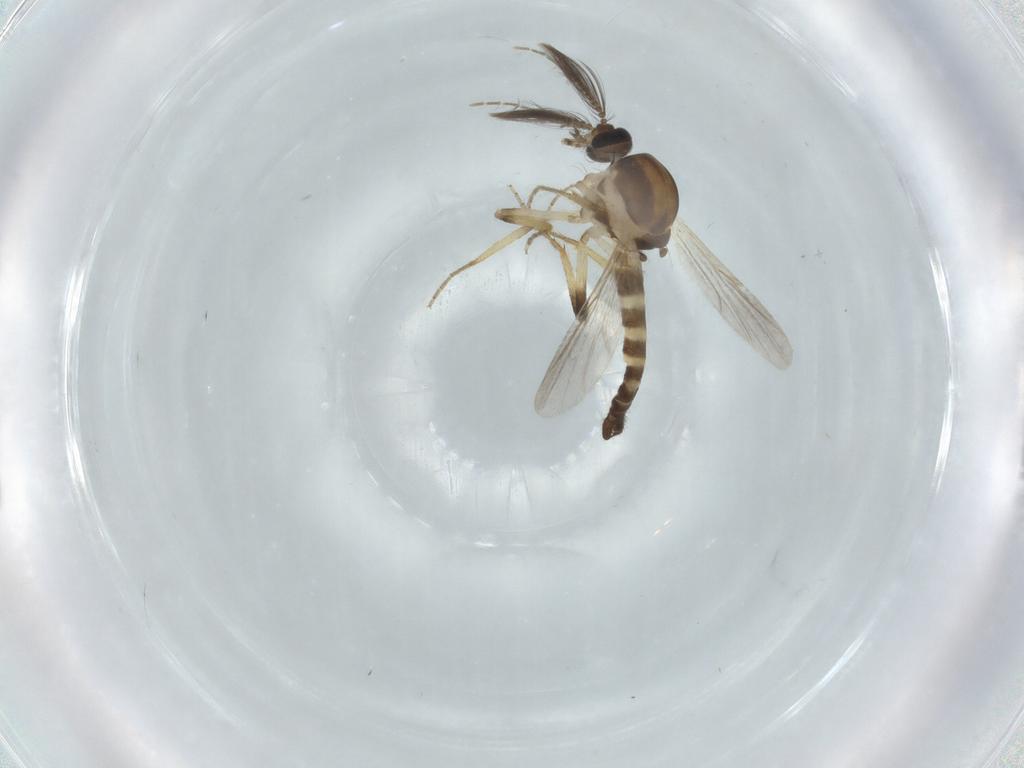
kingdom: Animalia
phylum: Arthropoda
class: Insecta
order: Diptera
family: Ceratopogonidae
